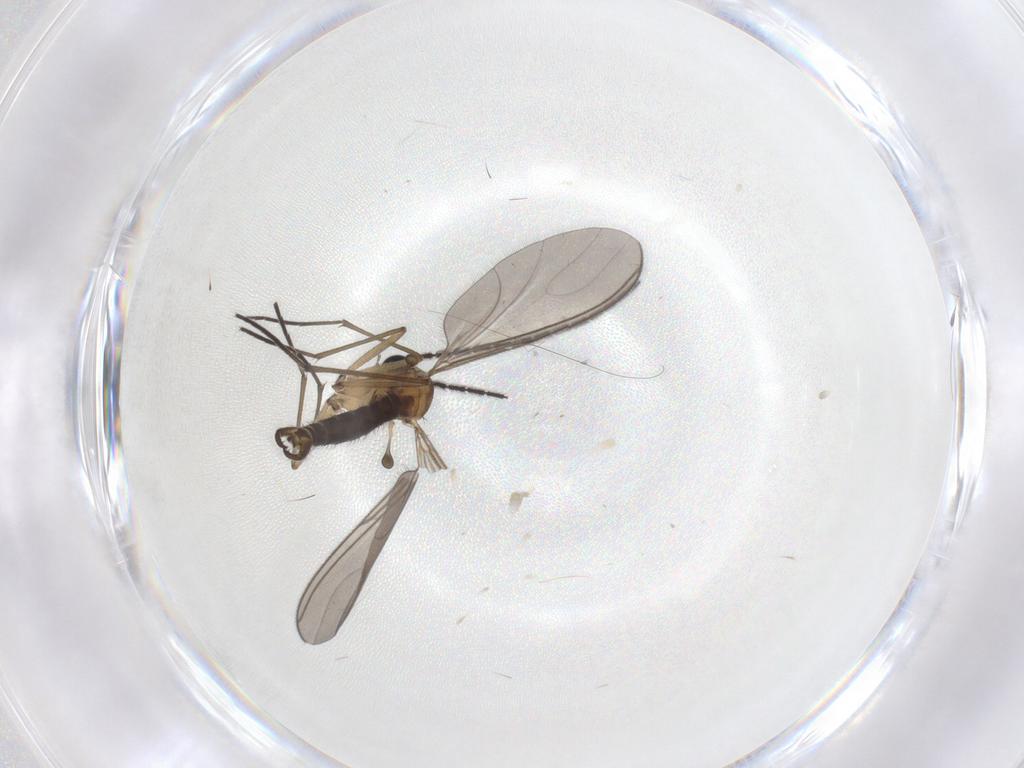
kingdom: Animalia
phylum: Arthropoda
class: Insecta
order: Diptera
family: Sciaridae
